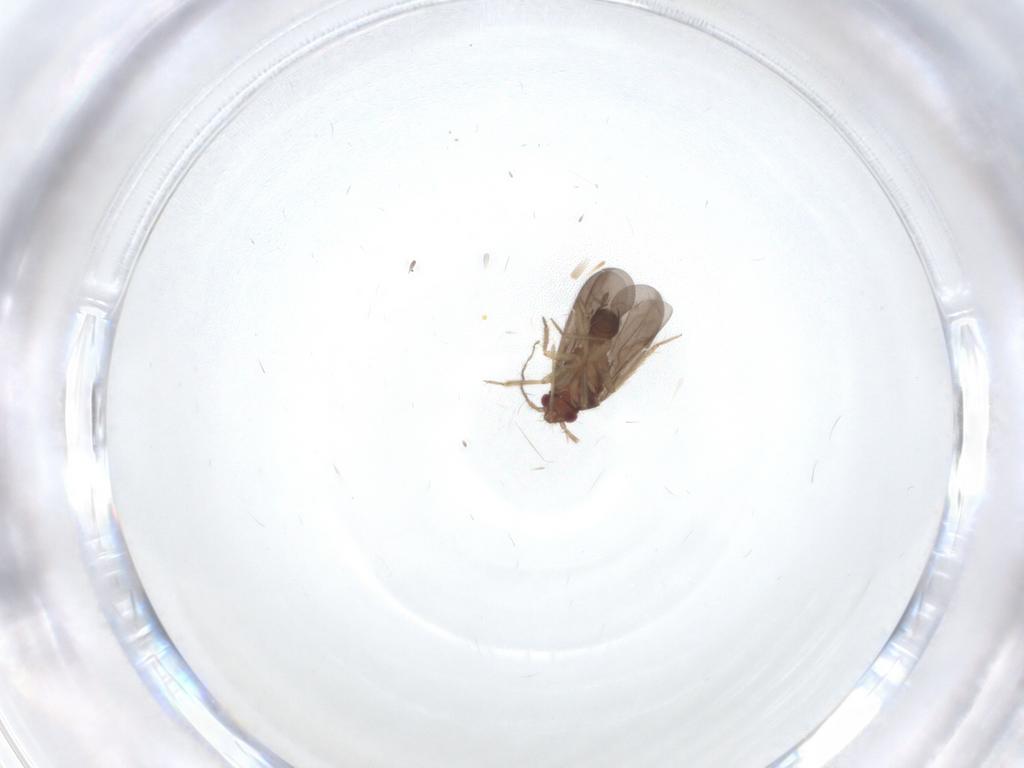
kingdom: Animalia
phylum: Arthropoda
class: Insecta
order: Hemiptera
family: Ceratocombidae
